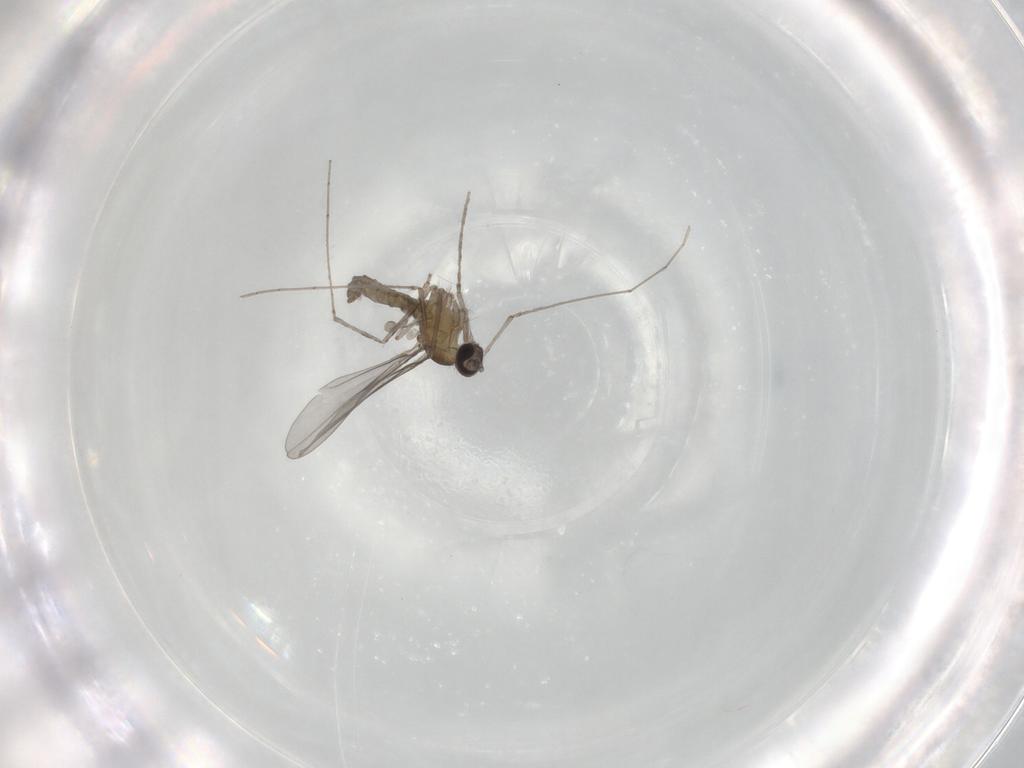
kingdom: Animalia
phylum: Arthropoda
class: Insecta
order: Diptera
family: Cecidomyiidae
